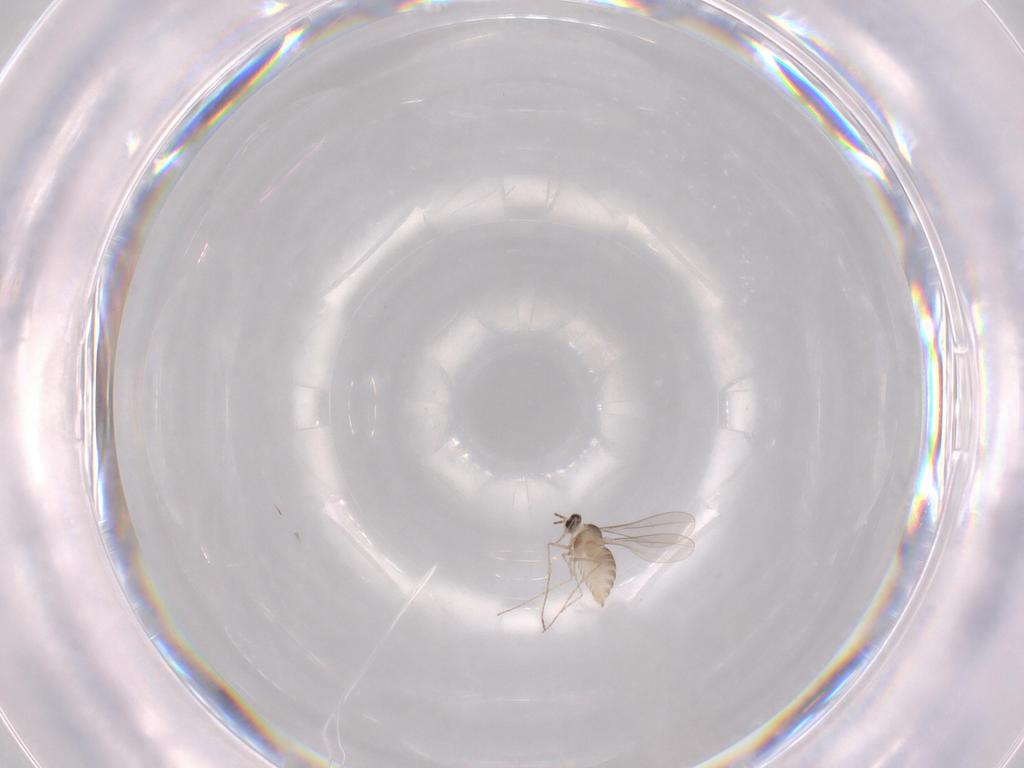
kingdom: Animalia
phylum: Arthropoda
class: Insecta
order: Diptera
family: Cecidomyiidae
